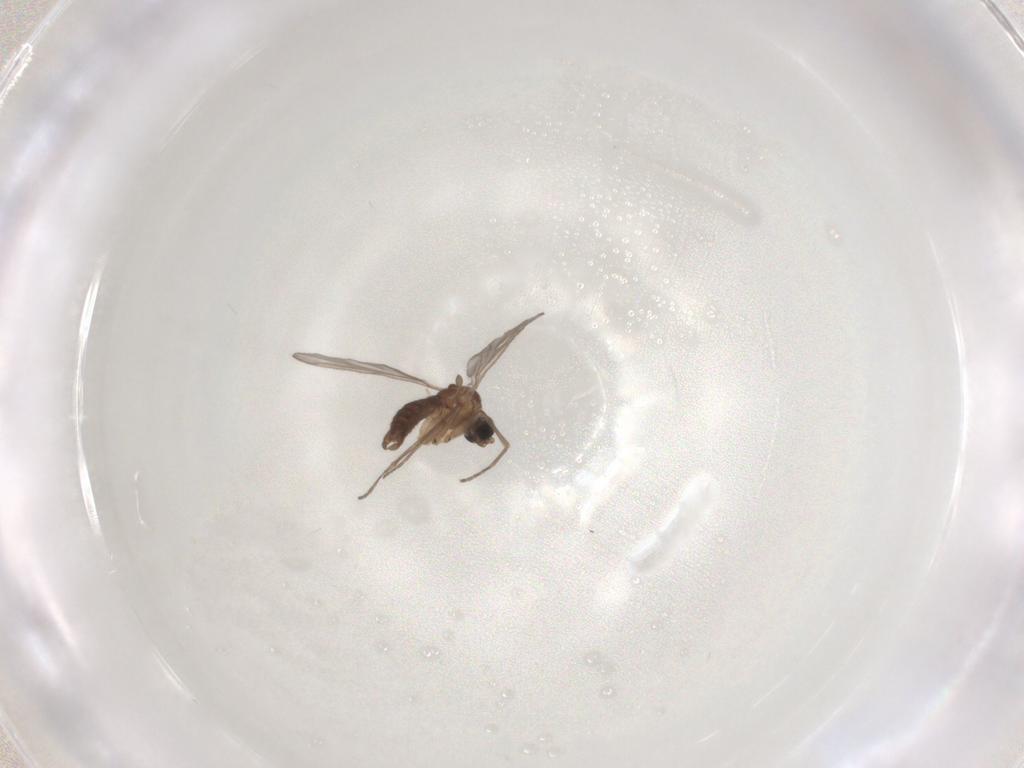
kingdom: Animalia
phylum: Arthropoda
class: Insecta
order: Diptera
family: Sciaridae
